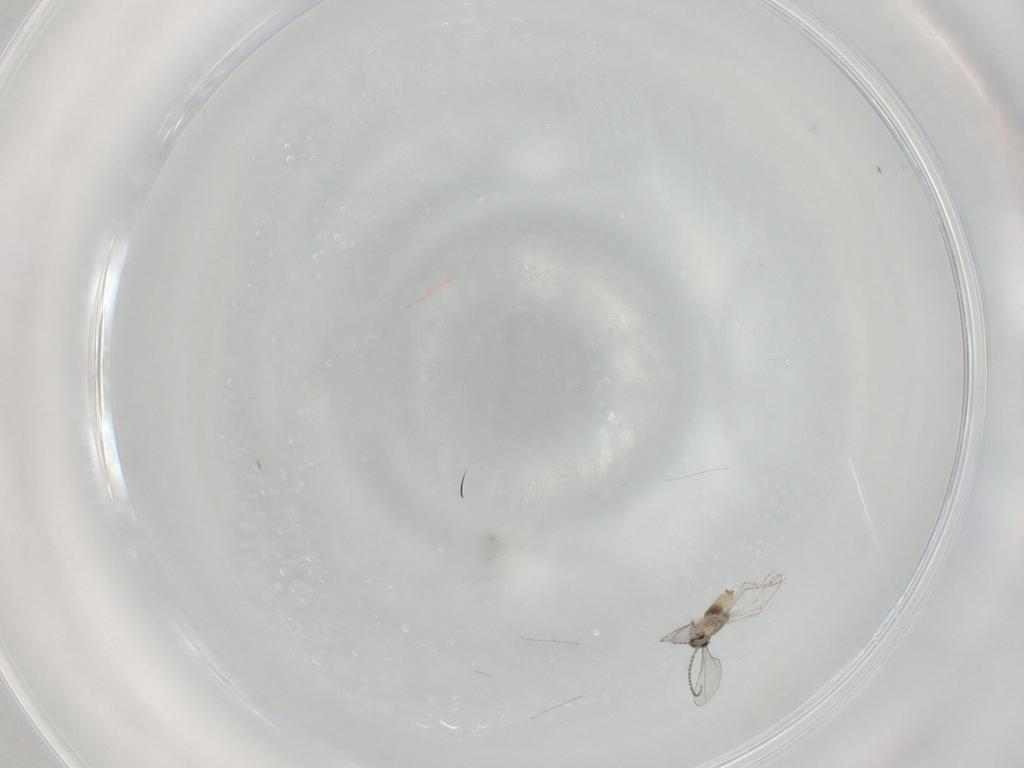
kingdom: Animalia
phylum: Arthropoda
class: Insecta
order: Diptera
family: Cecidomyiidae
